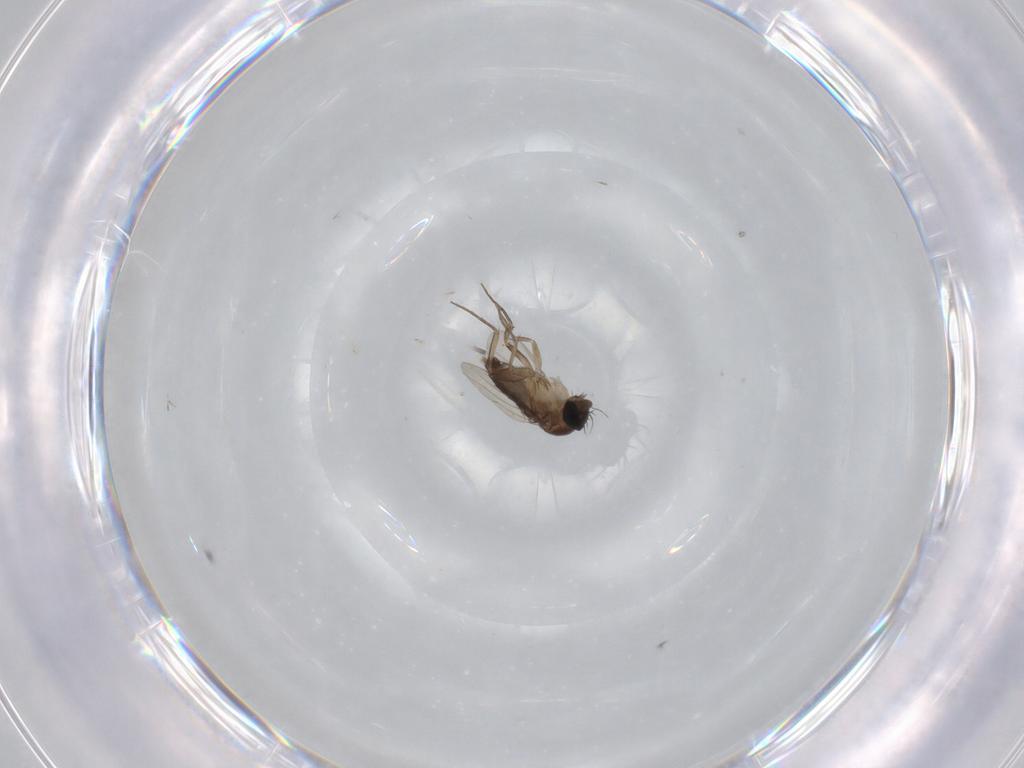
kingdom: Animalia
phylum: Arthropoda
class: Insecta
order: Diptera
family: Phoridae
